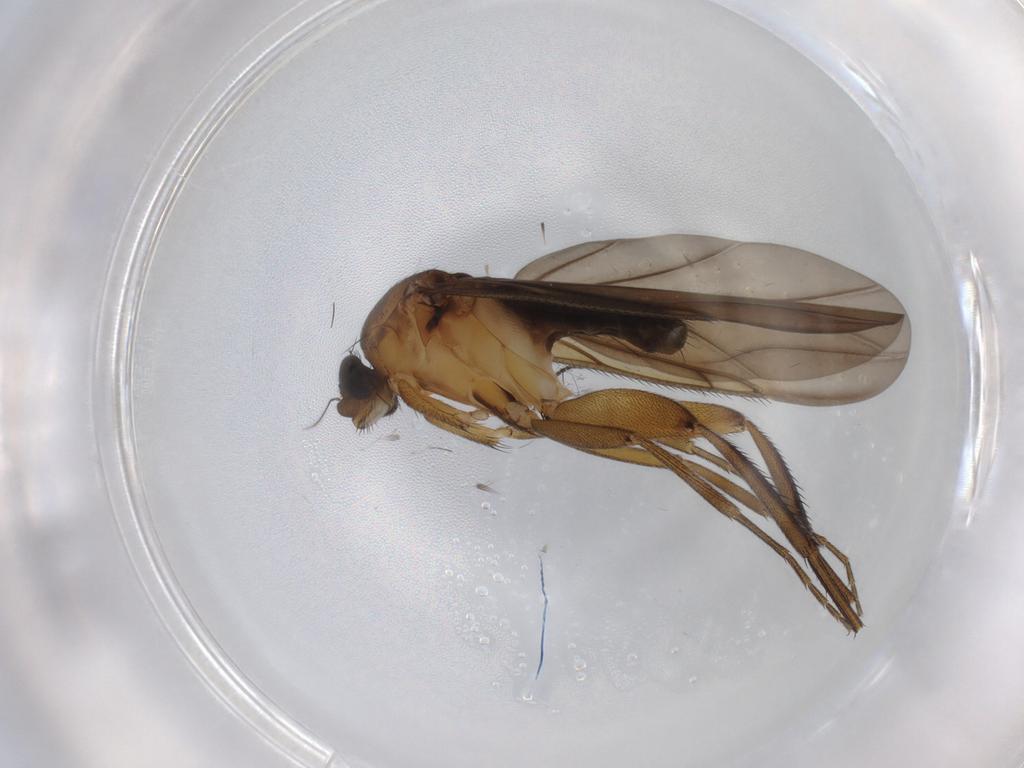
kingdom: Animalia
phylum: Arthropoda
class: Insecta
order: Diptera
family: Phoridae
